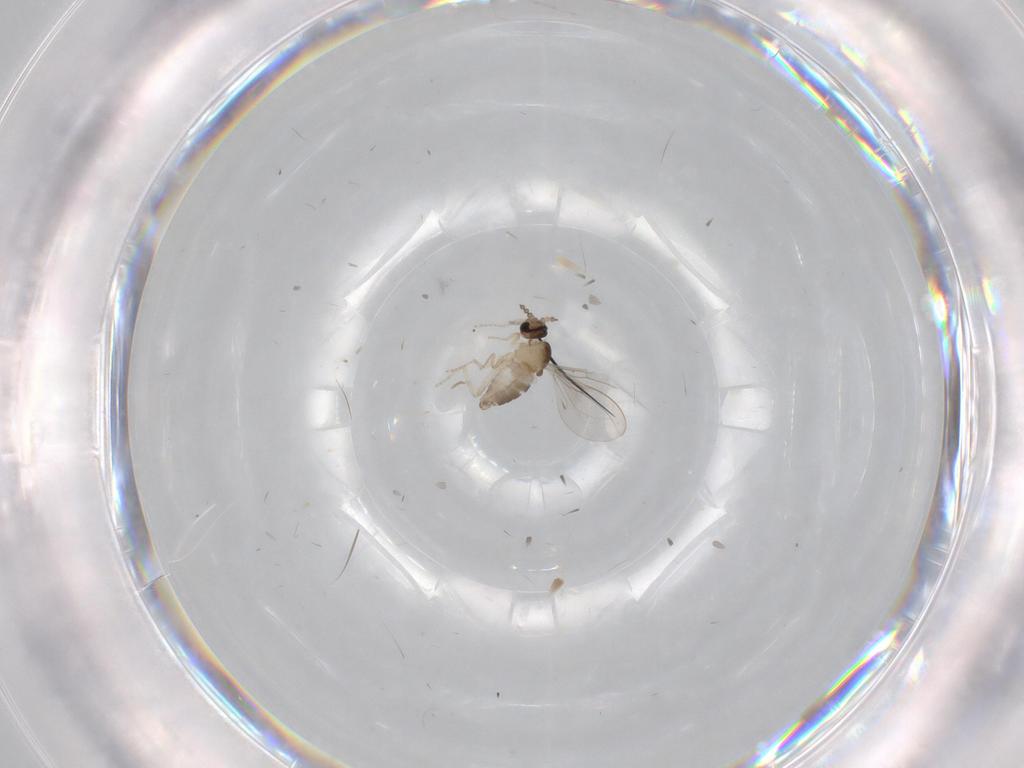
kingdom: Animalia
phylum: Arthropoda
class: Insecta
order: Diptera
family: Cecidomyiidae
